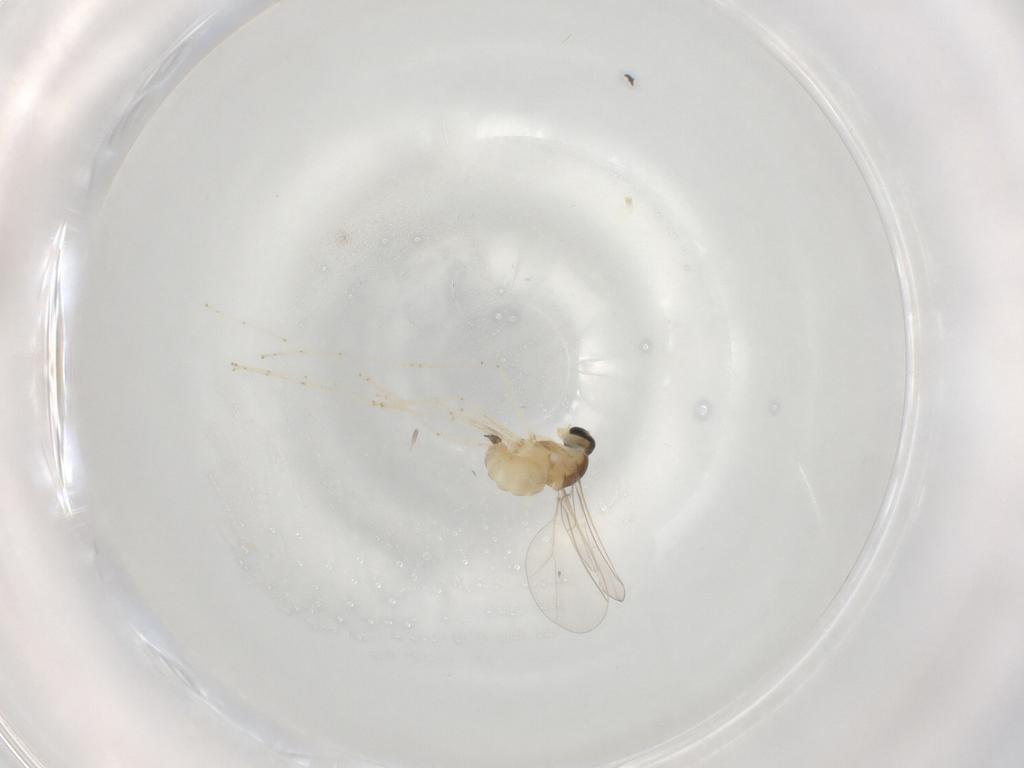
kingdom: Animalia
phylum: Arthropoda
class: Insecta
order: Diptera
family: Cecidomyiidae
